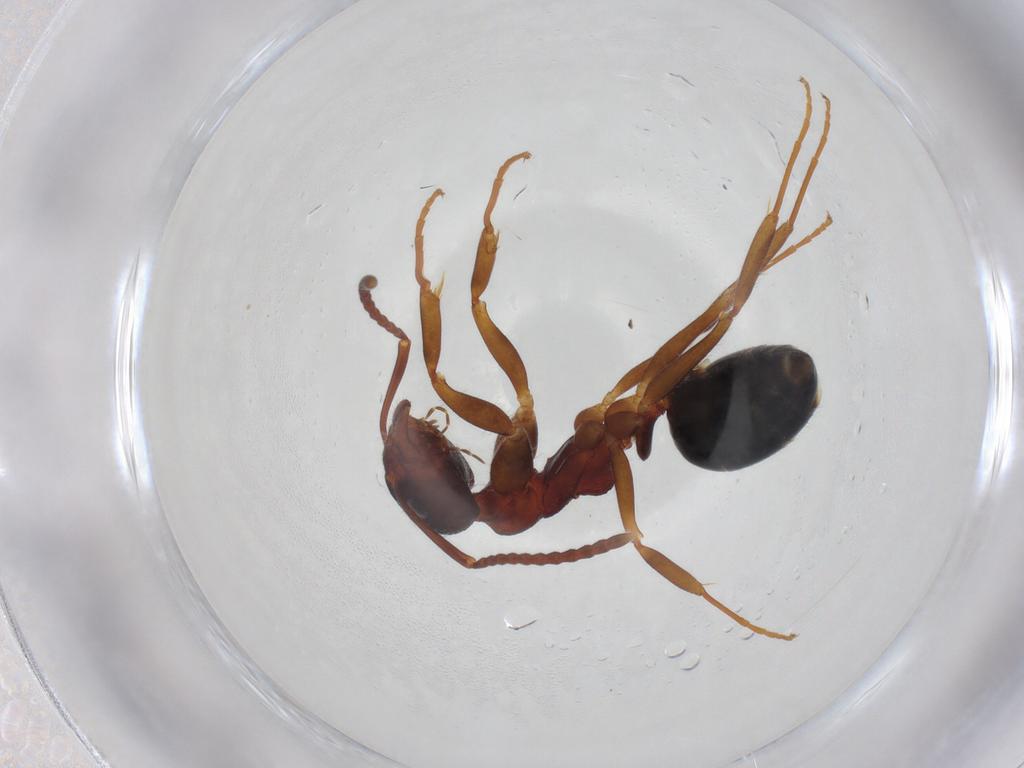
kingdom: Animalia
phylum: Arthropoda
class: Insecta
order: Hymenoptera
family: Formicidae
